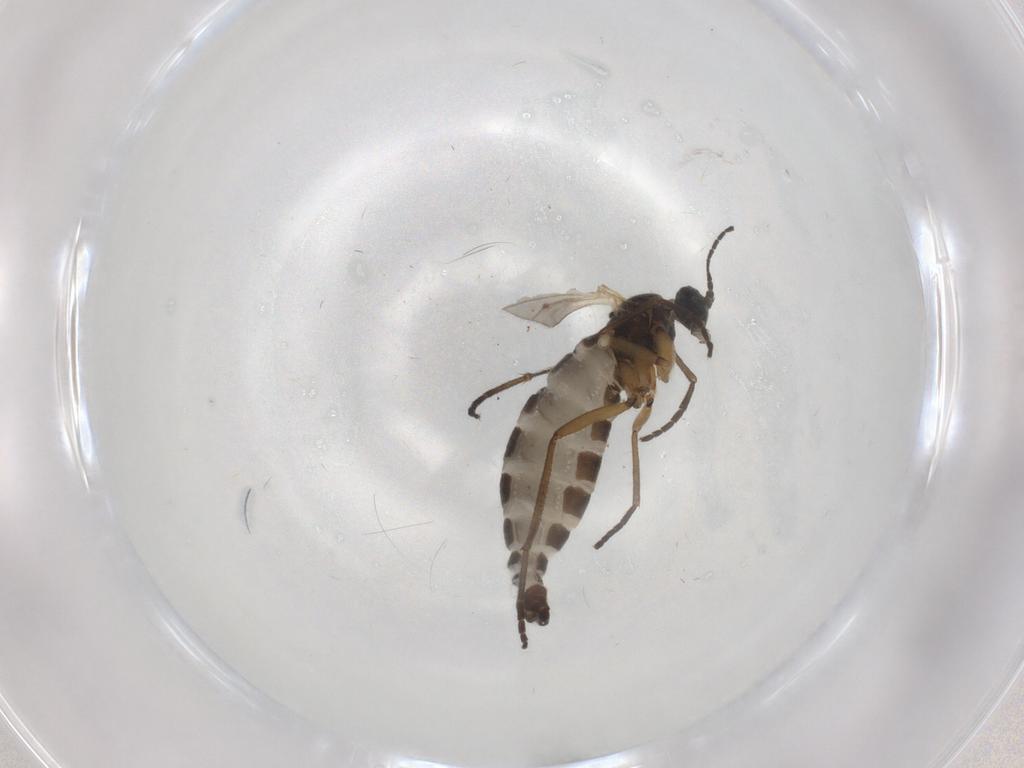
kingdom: Animalia
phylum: Arthropoda
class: Insecta
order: Diptera
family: Sciaridae
